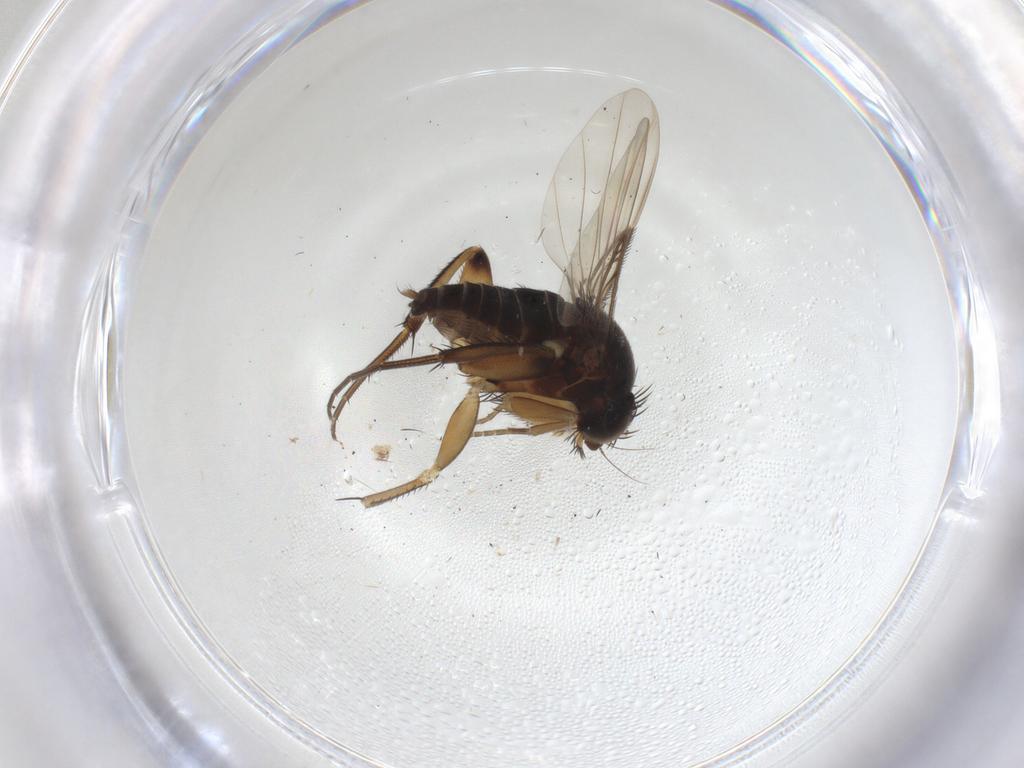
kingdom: Animalia
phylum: Arthropoda
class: Insecta
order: Diptera
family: Phoridae
